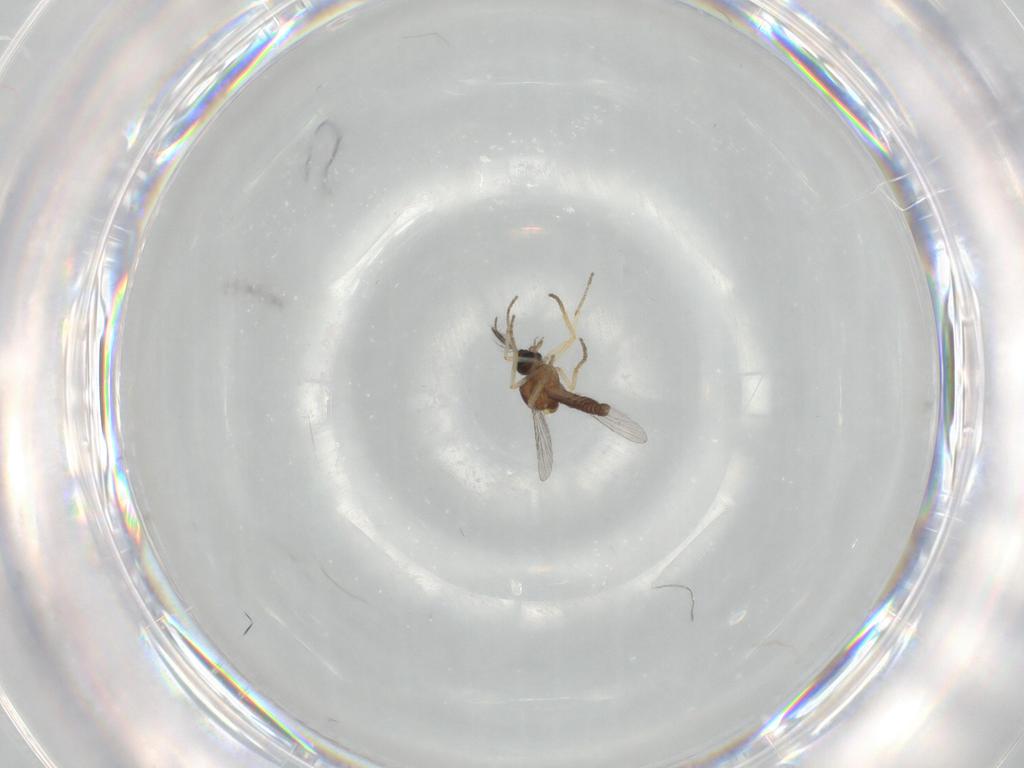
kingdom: Animalia
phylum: Arthropoda
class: Insecta
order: Diptera
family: Ceratopogonidae
